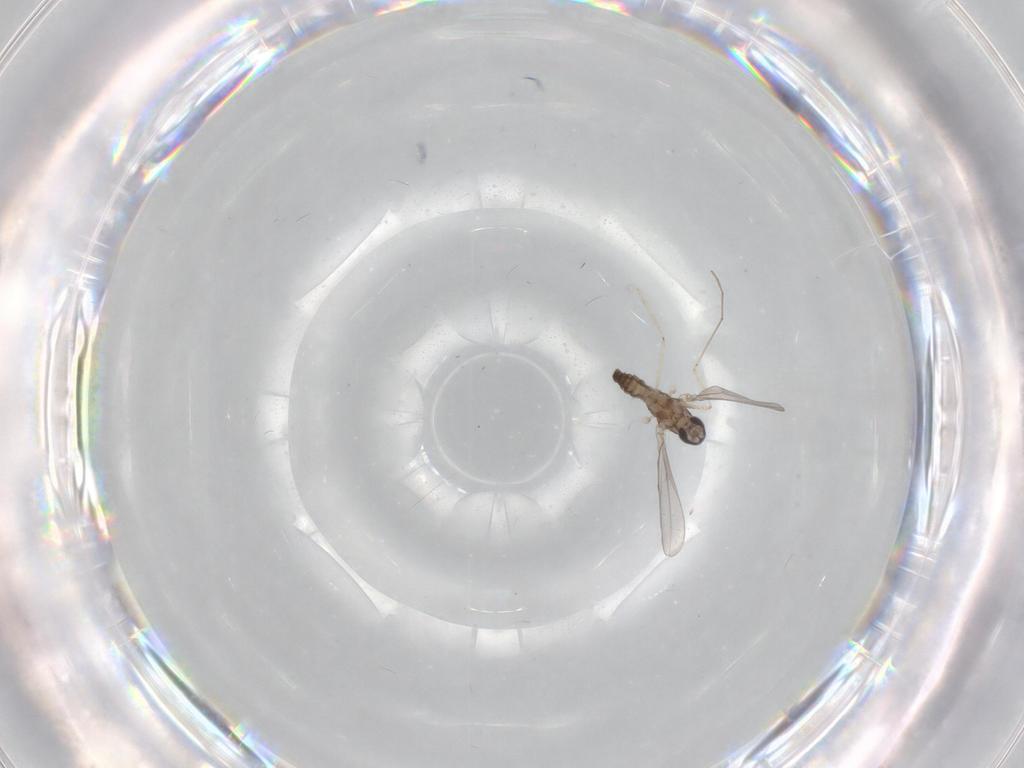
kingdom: Animalia
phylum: Arthropoda
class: Insecta
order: Diptera
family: Cecidomyiidae
